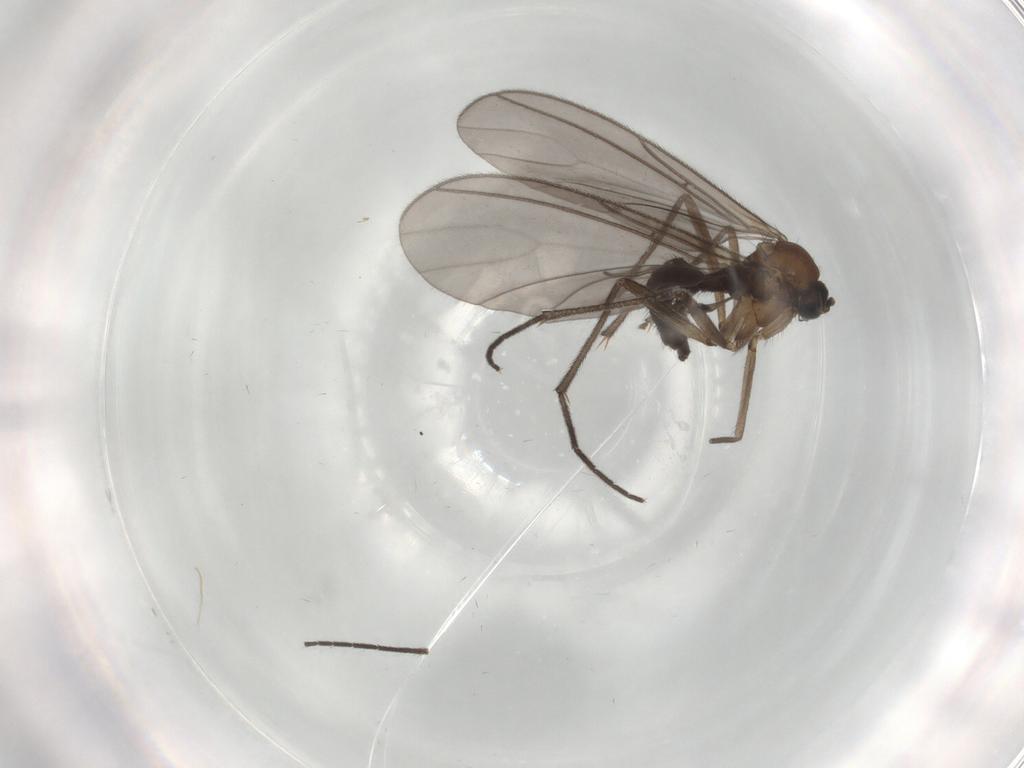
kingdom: Animalia
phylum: Arthropoda
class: Insecta
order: Diptera
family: Sciaridae
